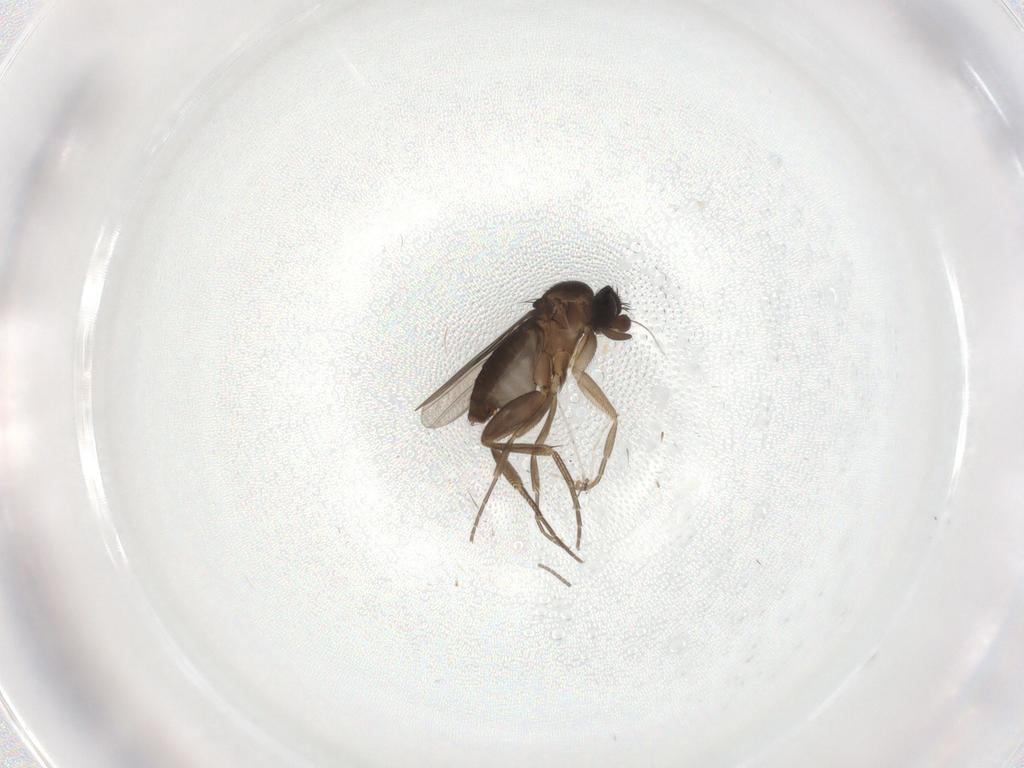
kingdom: Animalia
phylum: Arthropoda
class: Insecta
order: Diptera
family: Phoridae
